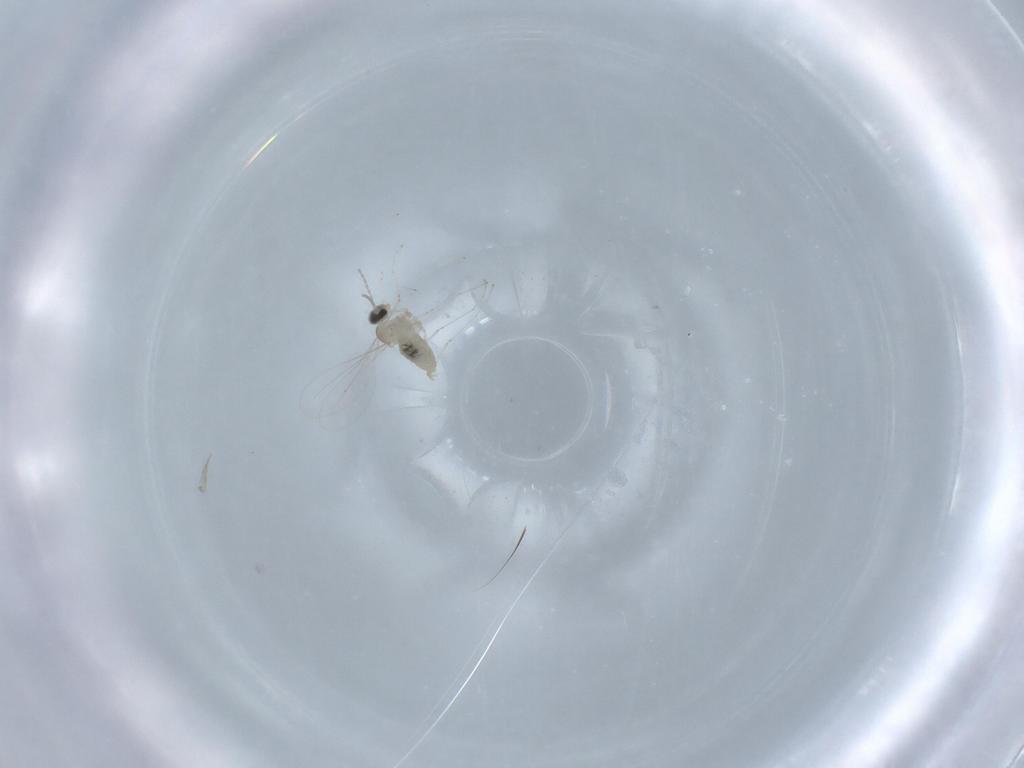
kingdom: Animalia
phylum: Arthropoda
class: Insecta
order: Diptera
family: Cecidomyiidae
